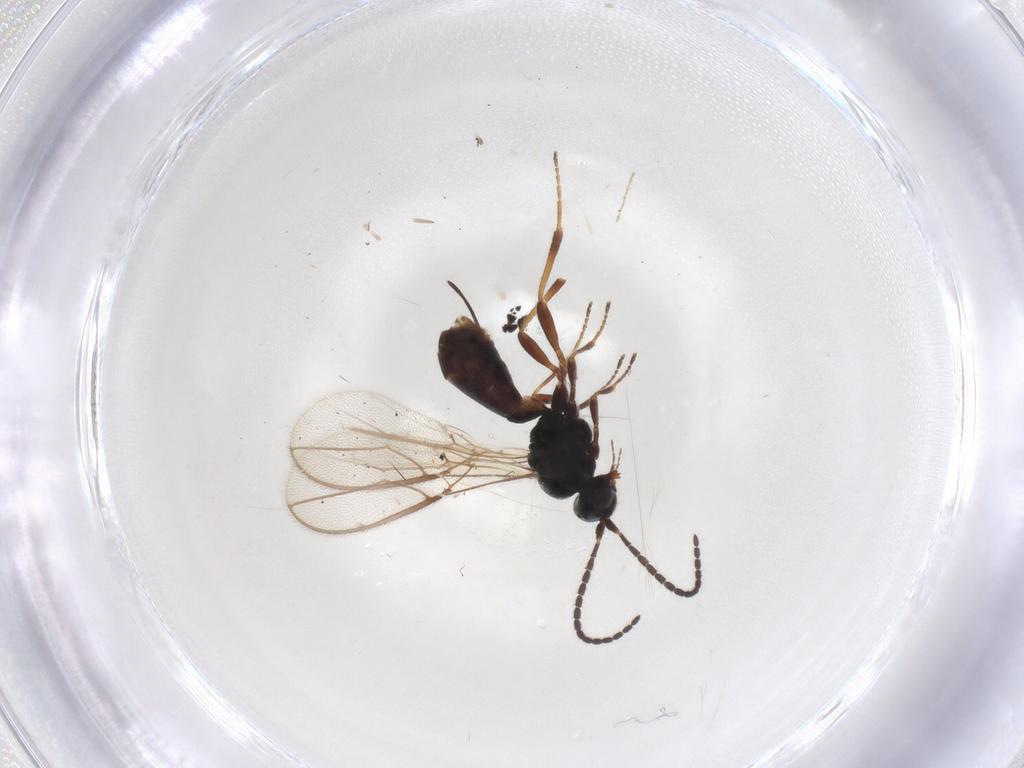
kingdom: Animalia
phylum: Arthropoda
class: Insecta
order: Hymenoptera
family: Braconidae
